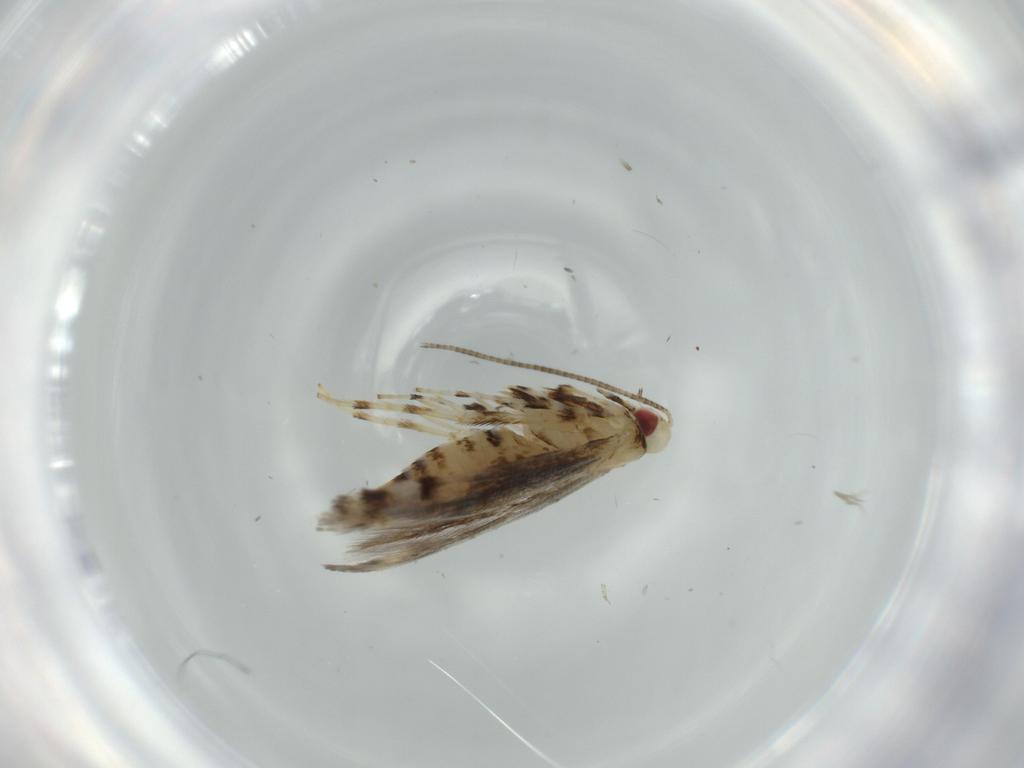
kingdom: Animalia
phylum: Arthropoda
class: Insecta
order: Lepidoptera
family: Gracillariidae
